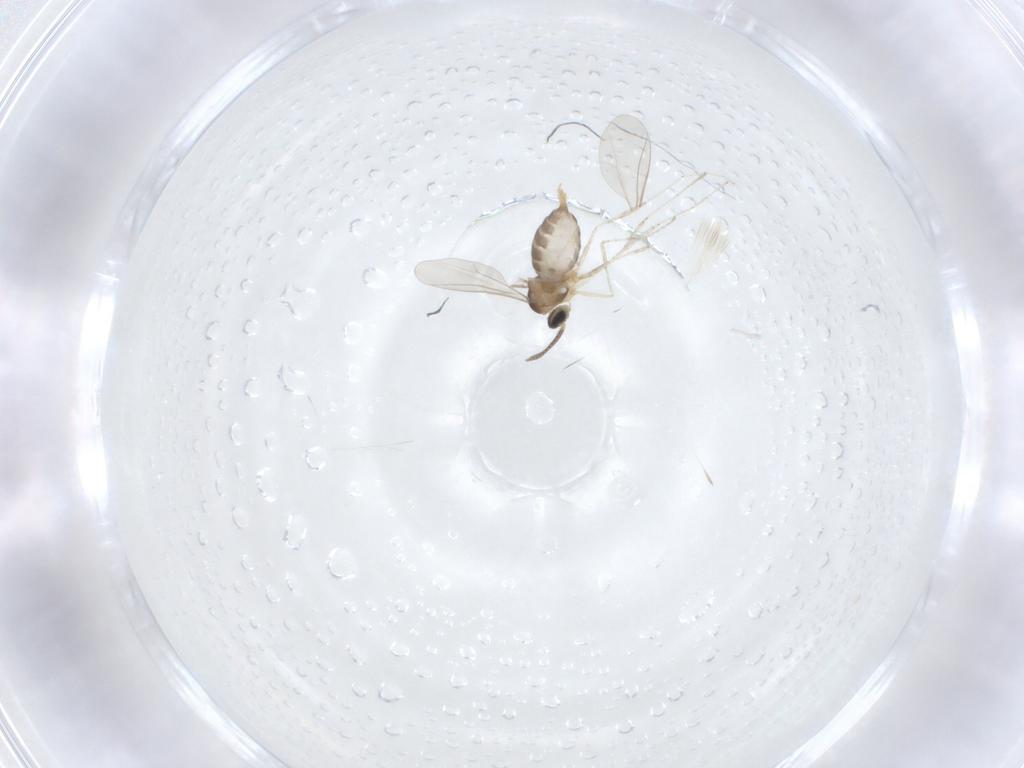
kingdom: Animalia
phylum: Arthropoda
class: Insecta
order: Diptera
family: Cecidomyiidae
